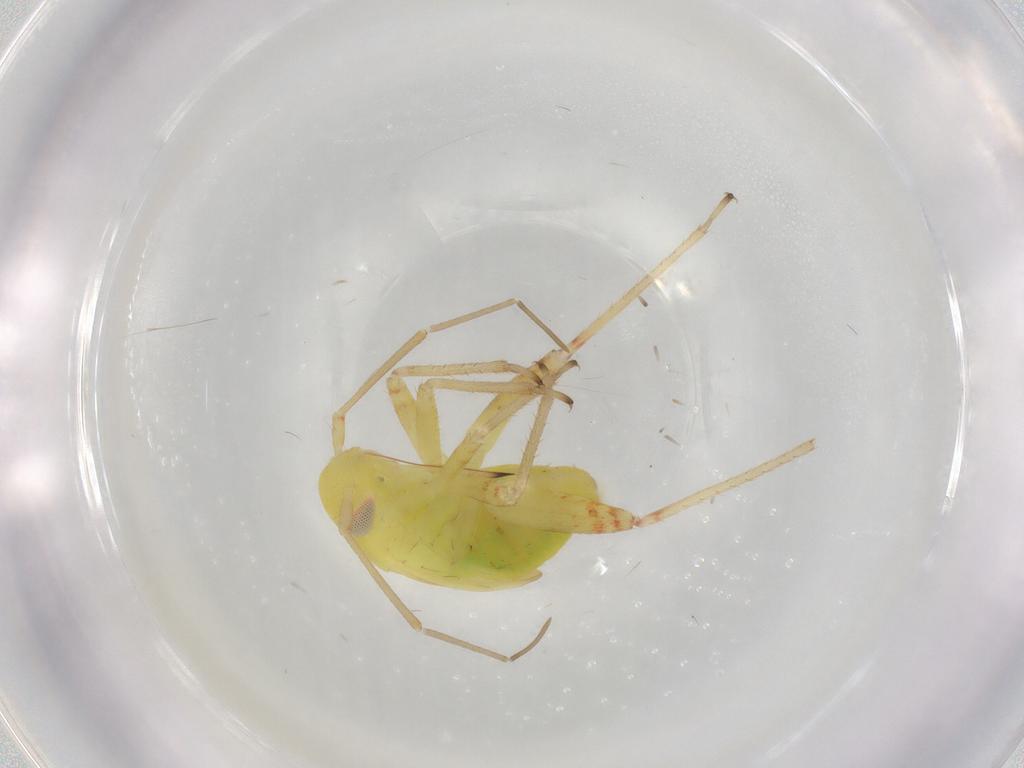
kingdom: Animalia
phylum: Arthropoda
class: Insecta
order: Hemiptera
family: Miridae
